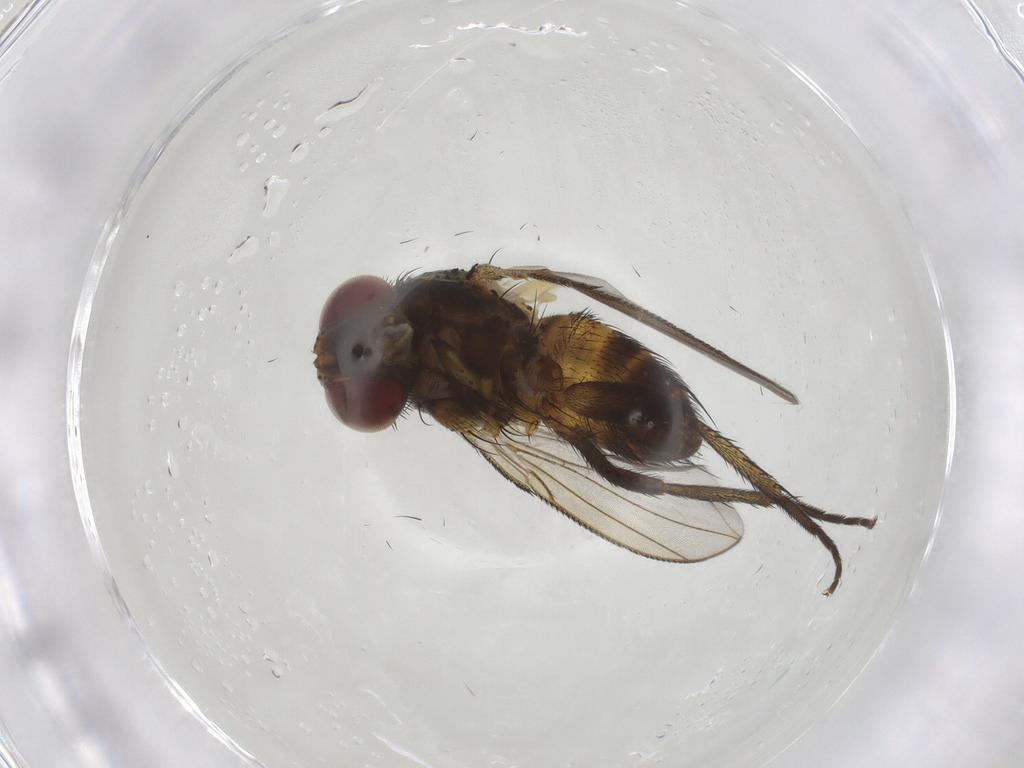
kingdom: Animalia
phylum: Arthropoda
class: Insecta
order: Diptera
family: Tachinidae
